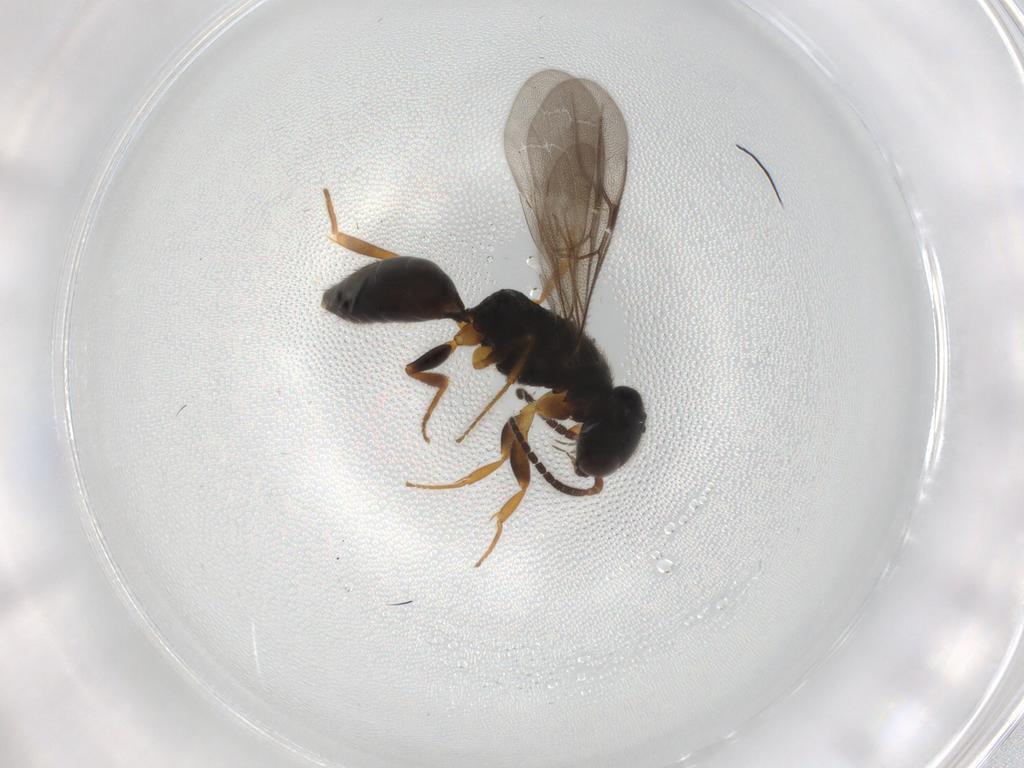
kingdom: Animalia
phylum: Arthropoda
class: Insecta
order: Hymenoptera
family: Bethylidae
